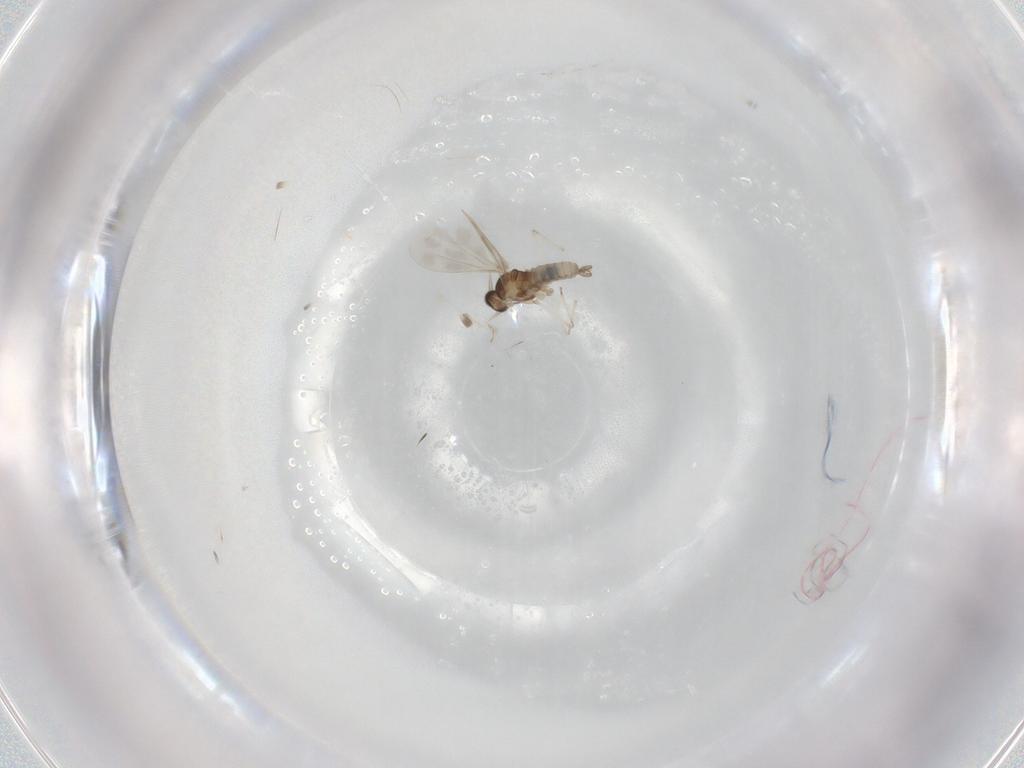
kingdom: Animalia
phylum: Arthropoda
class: Insecta
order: Diptera
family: Cecidomyiidae
